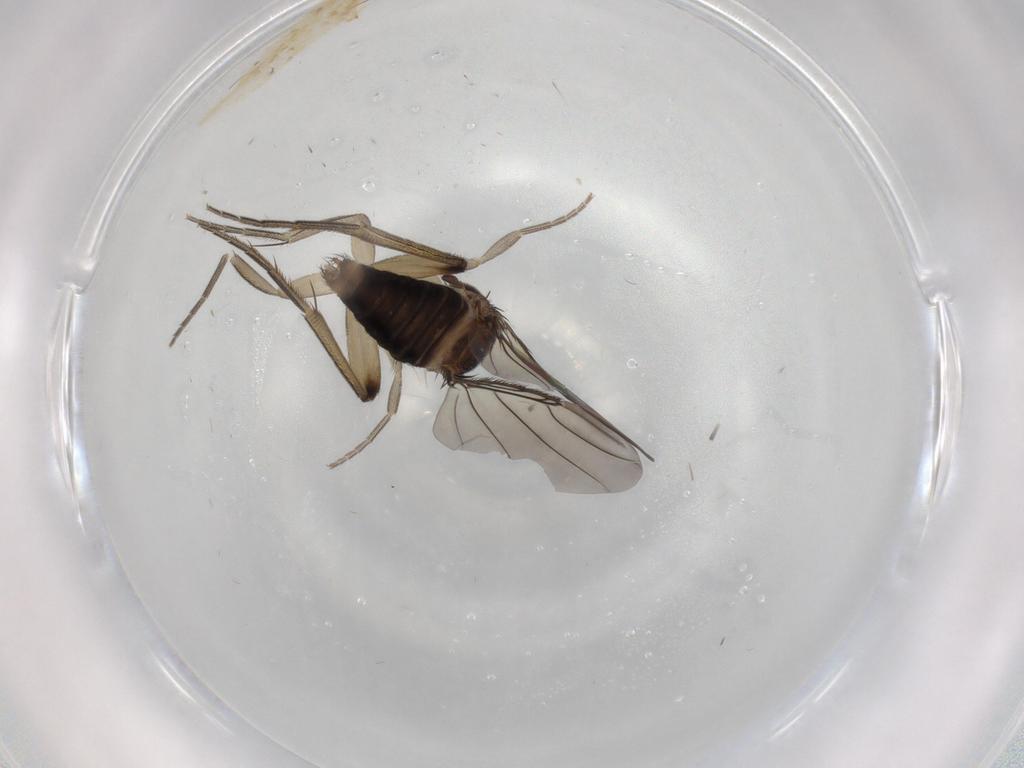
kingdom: Animalia
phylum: Arthropoda
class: Insecta
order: Diptera
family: Phoridae
